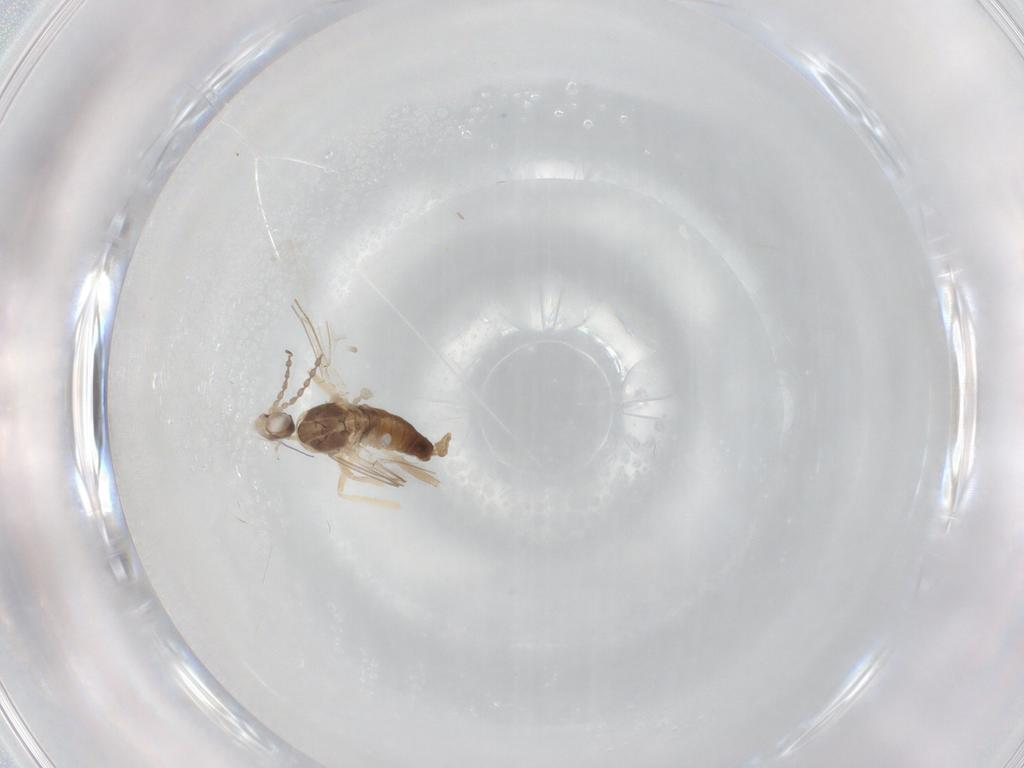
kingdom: Animalia
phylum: Arthropoda
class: Insecta
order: Diptera
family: Cecidomyiidae
